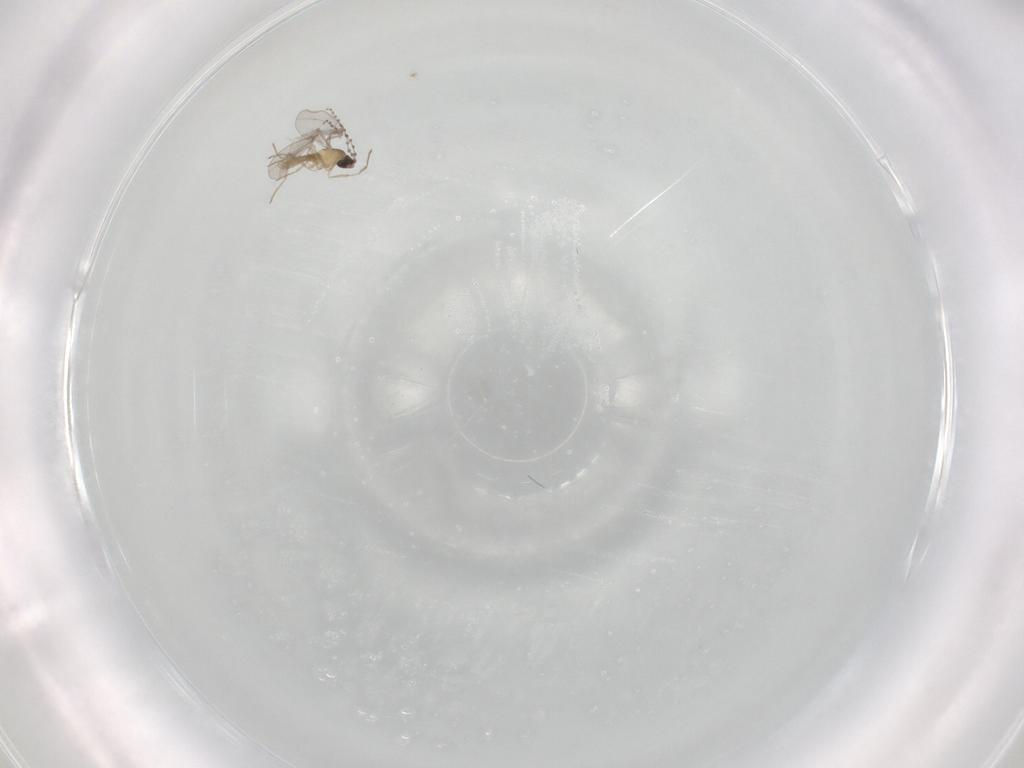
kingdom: Animalia
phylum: Arthropoda
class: Insecta
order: Diptera
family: Cecidomyiidae
